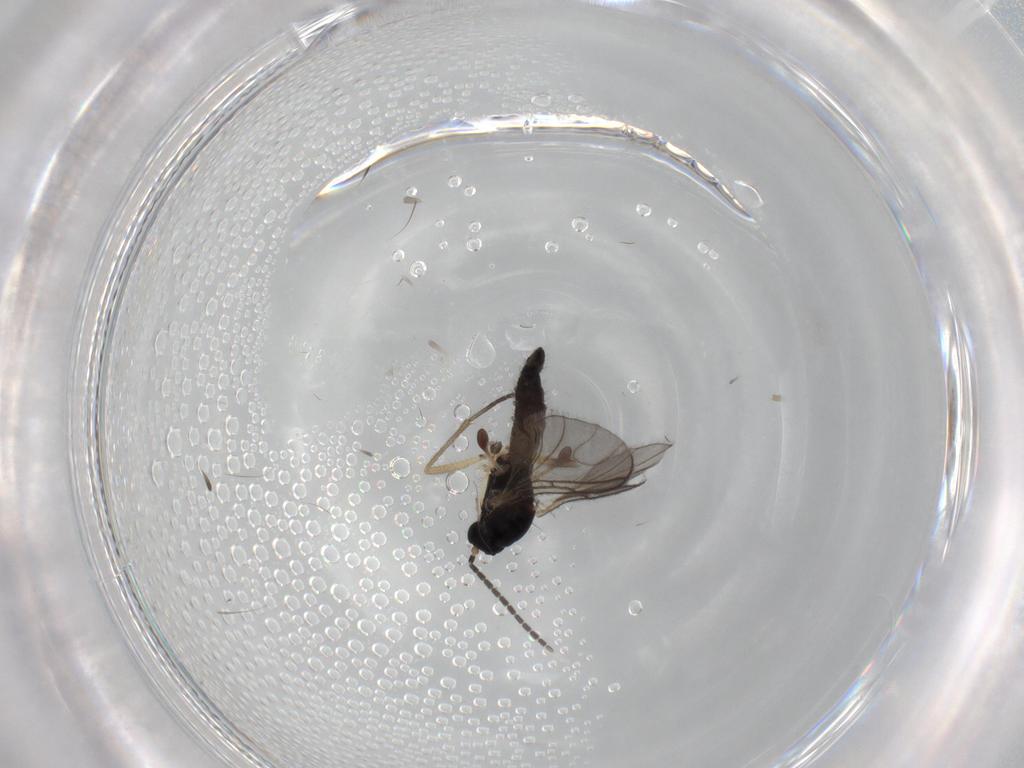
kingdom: Animalia
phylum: Arthropoda
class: Insecta
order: Diptera
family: Sciaridae
